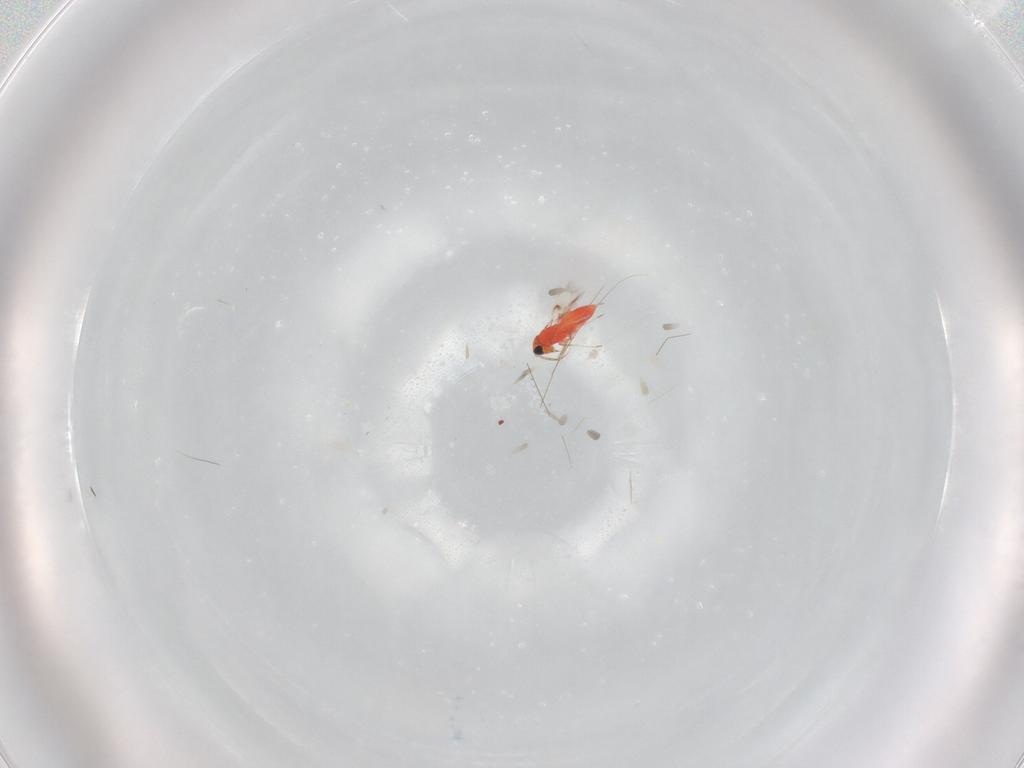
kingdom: Animalia
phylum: Arthropoda
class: Insecta
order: Hymenoptera
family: Trichogrammatidae
